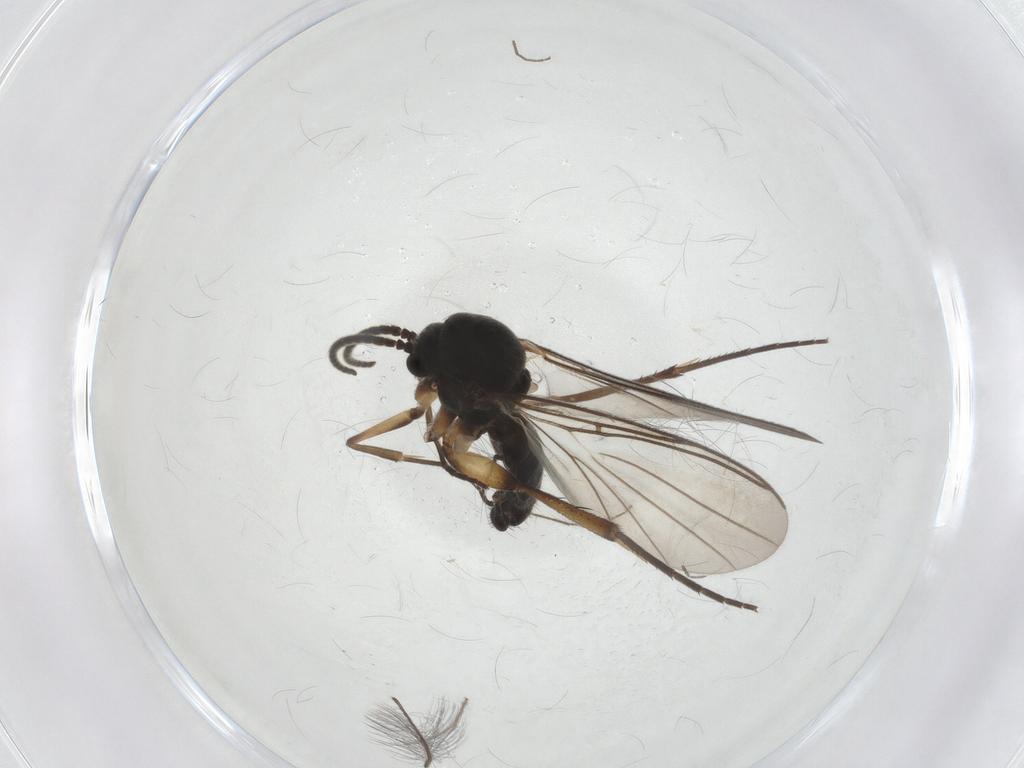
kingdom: Animalia
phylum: Arthropoda
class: Insecta
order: Diptera
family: Mycetophilidae
